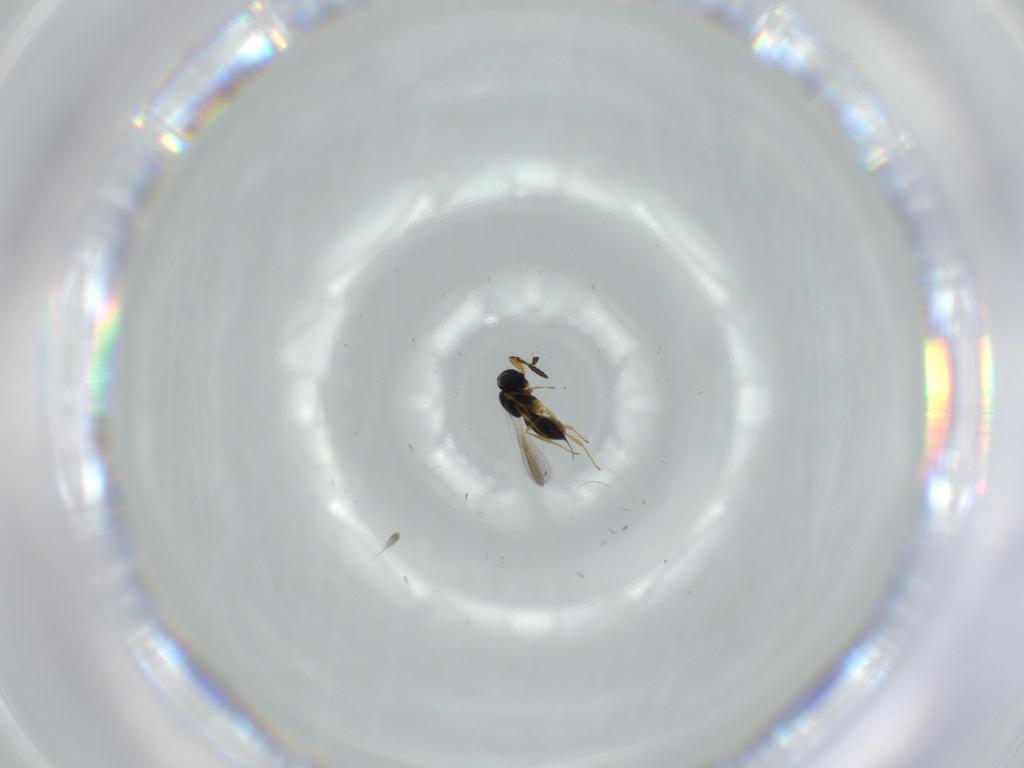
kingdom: Animalia
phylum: Arthropoda
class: Insecta
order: Hymenoptera
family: Scelionidae
